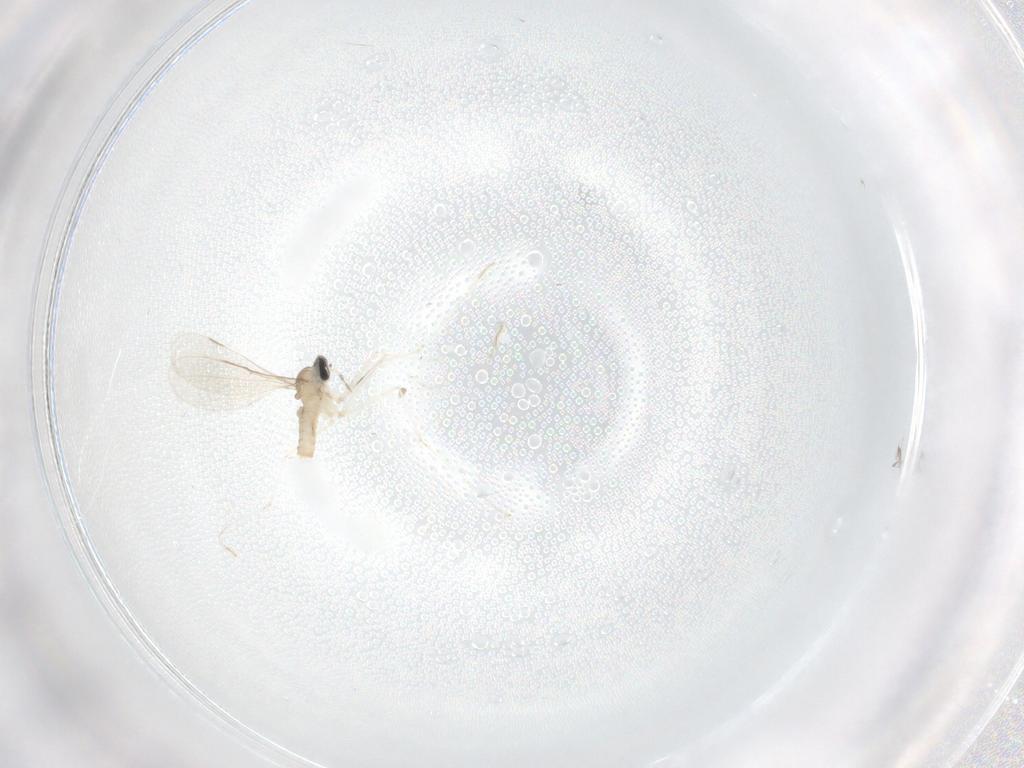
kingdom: Animalia
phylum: Arthropoda
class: Insecta
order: Diptera
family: Cecidomyiidae
